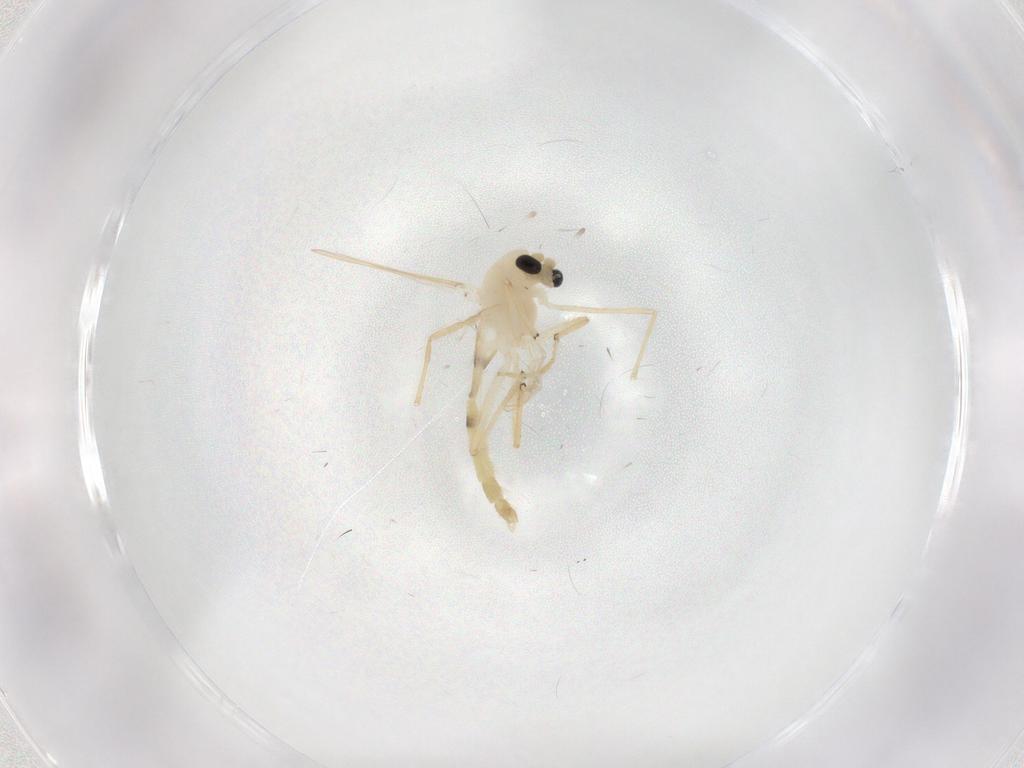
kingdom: Animalia
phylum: Arthropoda
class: Insecta
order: Diptera
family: Chironomidae
